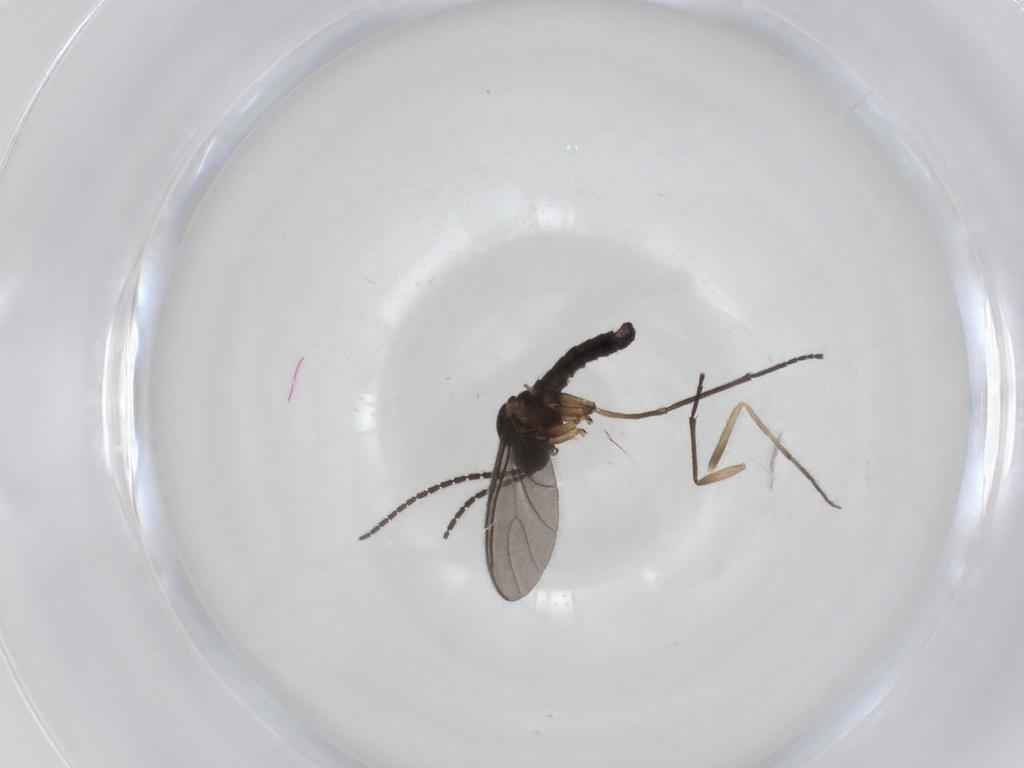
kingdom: Animalia
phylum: Arthropoda
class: Insecta
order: Diptera
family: Sciaridae
